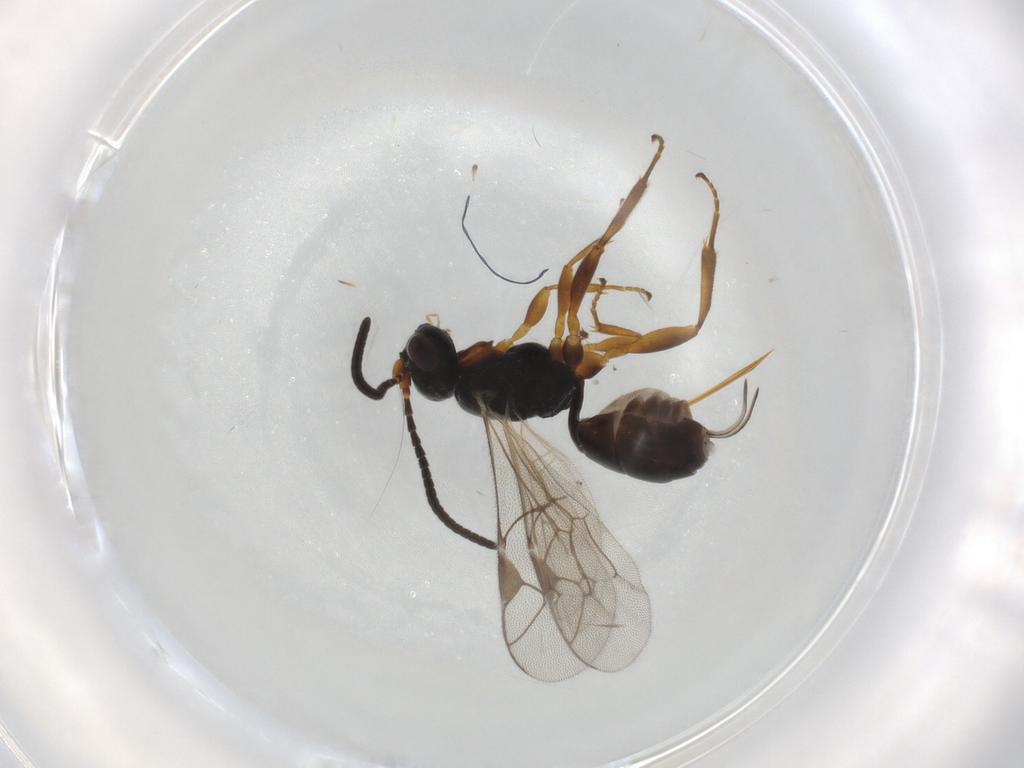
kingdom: Animalia
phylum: Arthropoda
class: Insecta
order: Hymenoptera
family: Ichneumonidae
